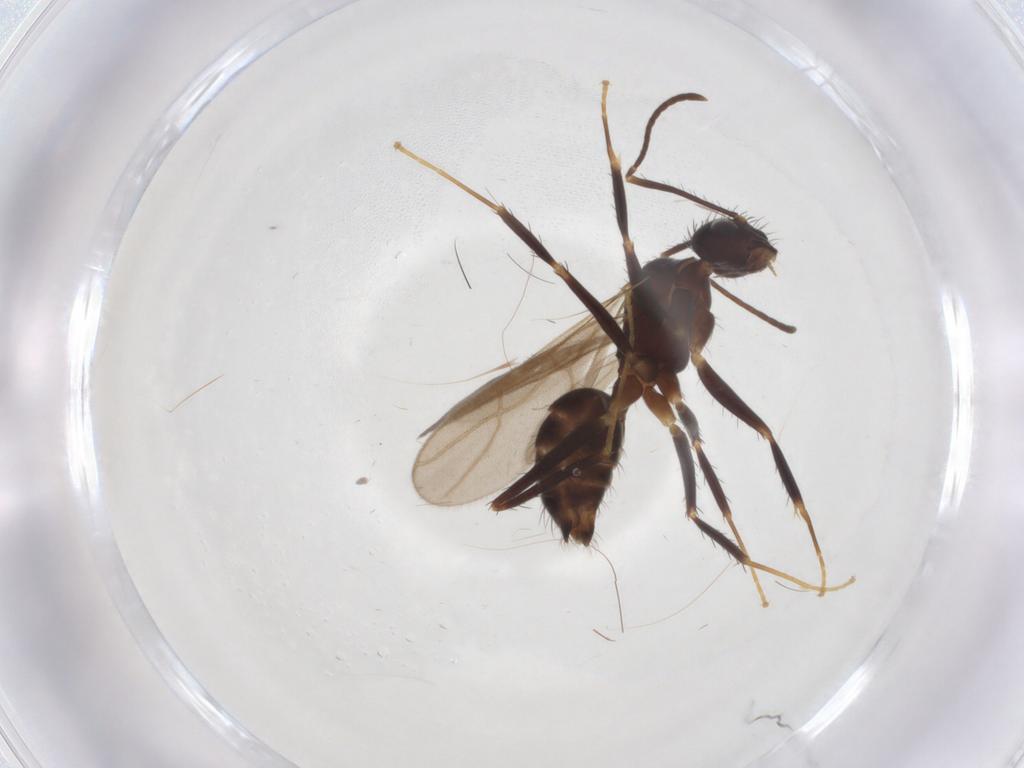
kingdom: Animalia
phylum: Arthropoda
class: Insecta
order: Hymenoptera
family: Formicidae
